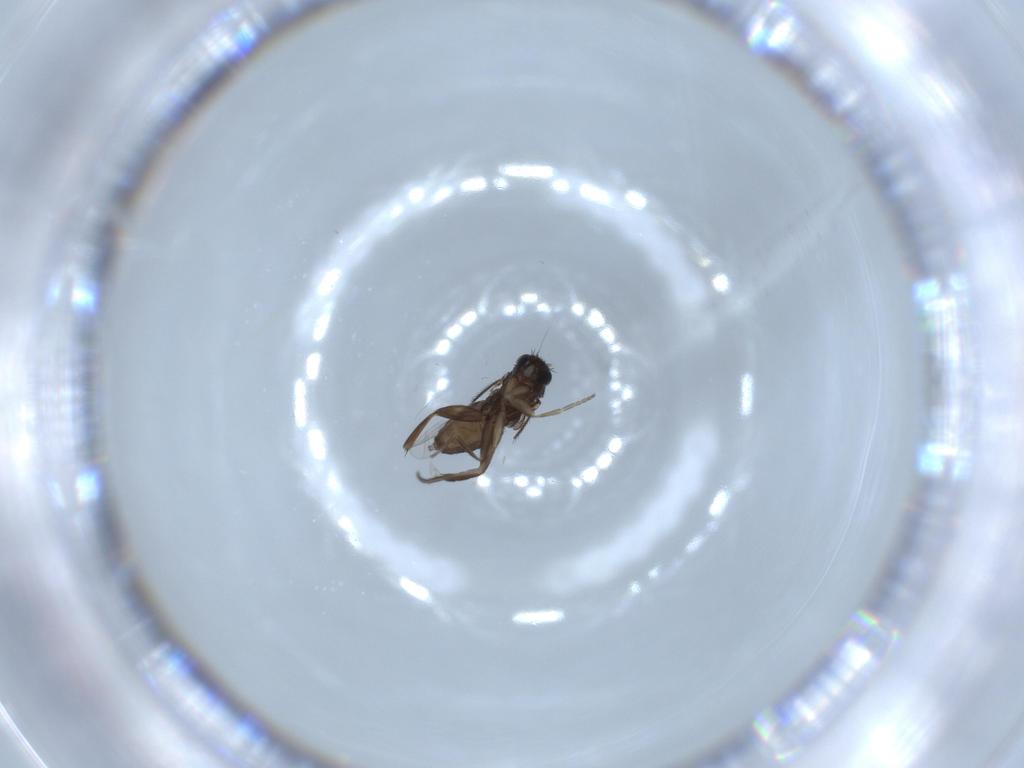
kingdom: Animalia
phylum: Arthropoda
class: Insecta
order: Diptera
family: Phoridae
